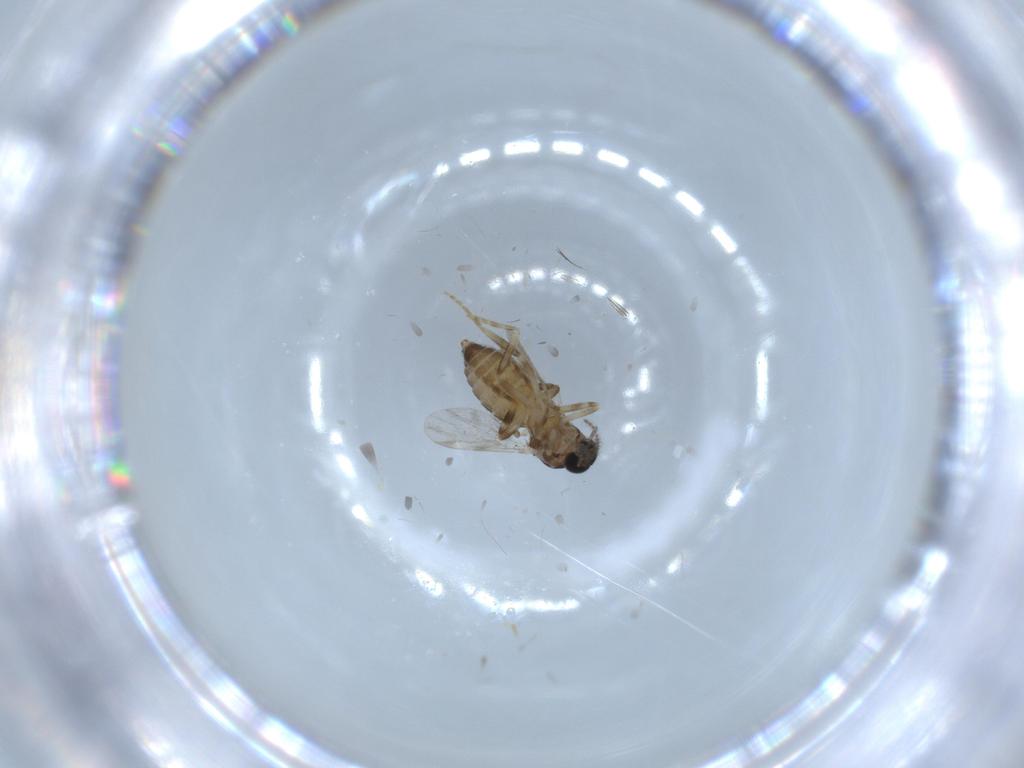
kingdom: Animalia
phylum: Arthropoda
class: Insecta
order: Diptera
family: Ceratopogonidae
